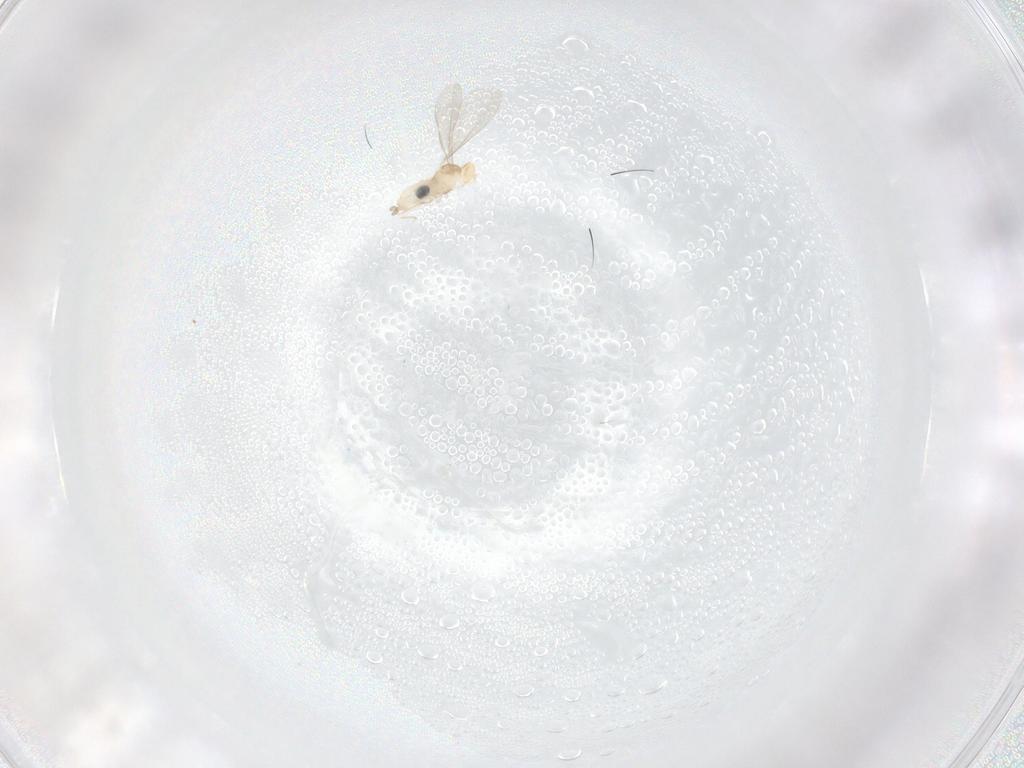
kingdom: Animalia
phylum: Arthropoda
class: Insecta
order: Diptera
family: Cecidomyiidae
